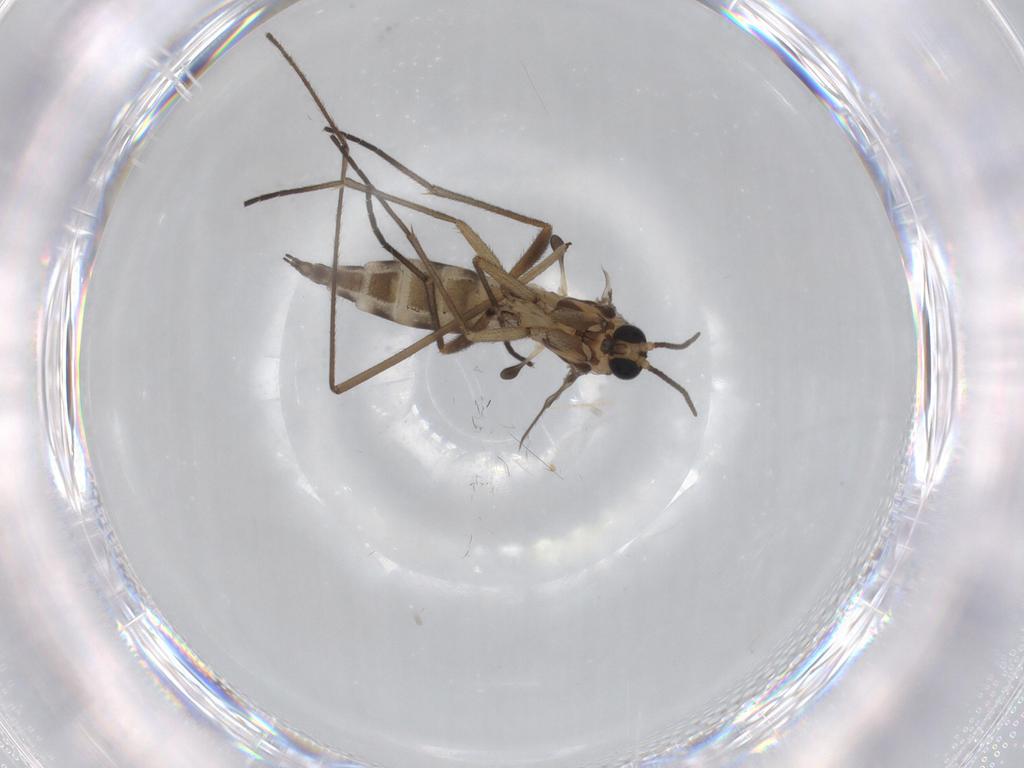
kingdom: Animalia
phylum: Arthropoda
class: Insecta
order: Diptera
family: Sciaridae
